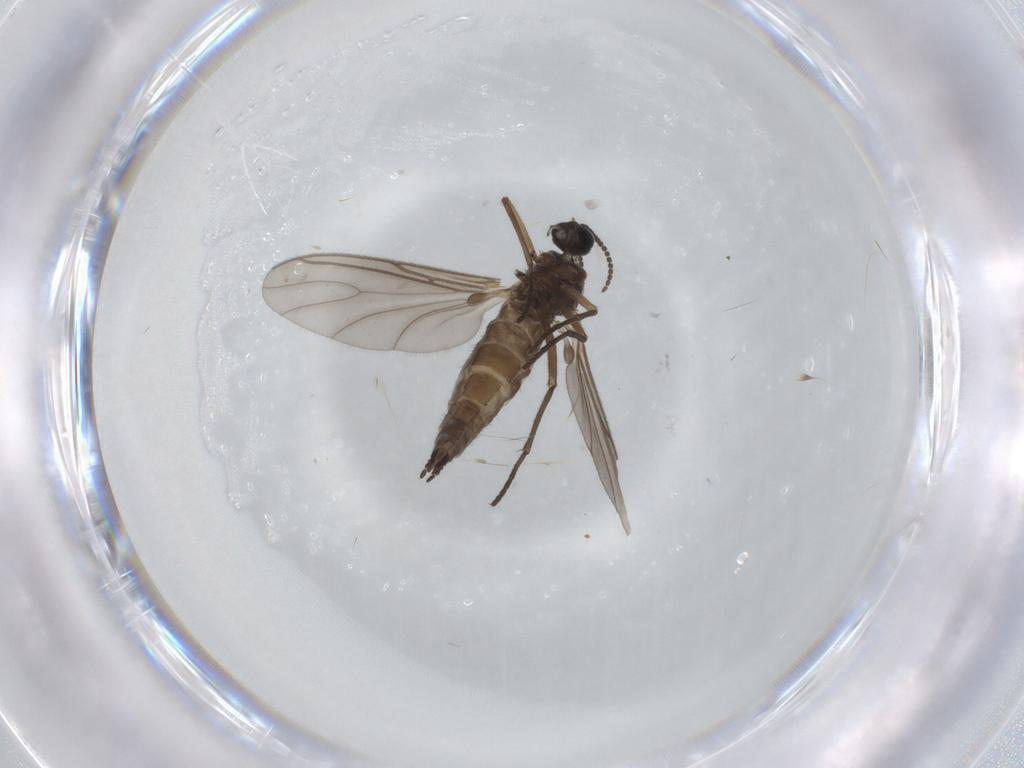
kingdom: Animalia
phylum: Arthropoda
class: Insecta
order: Diptera
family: Sciaridae
